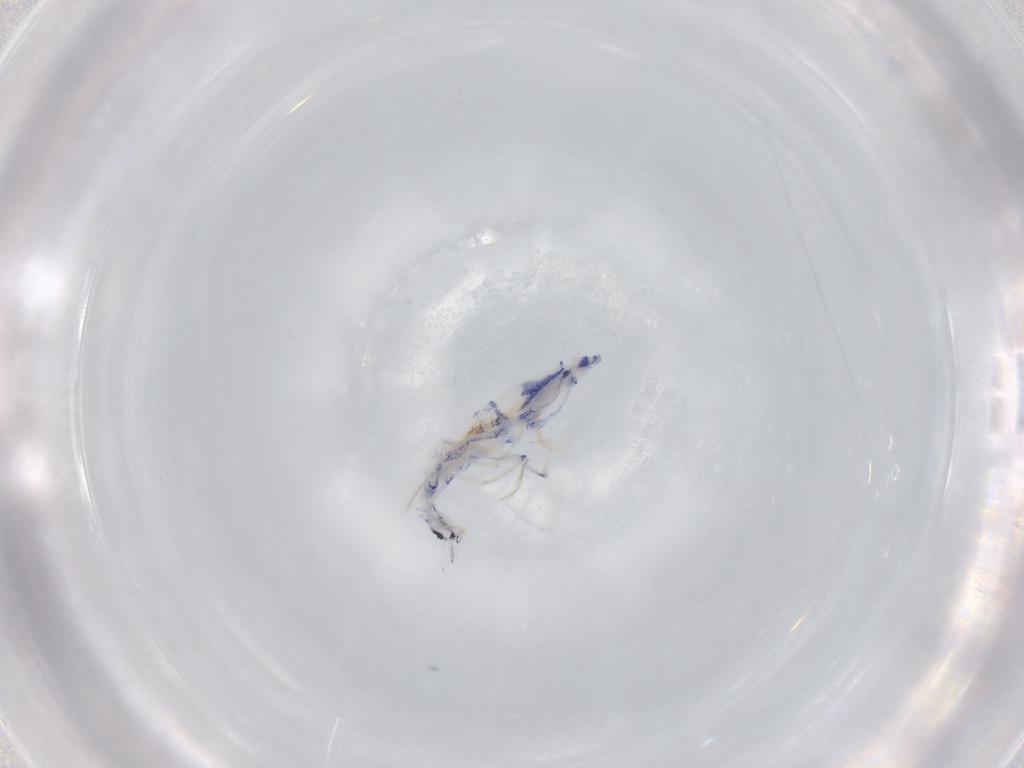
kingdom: Animalia
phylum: Arthropoda
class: Collembola
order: Entomobryomorpha
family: Entomobryidae
